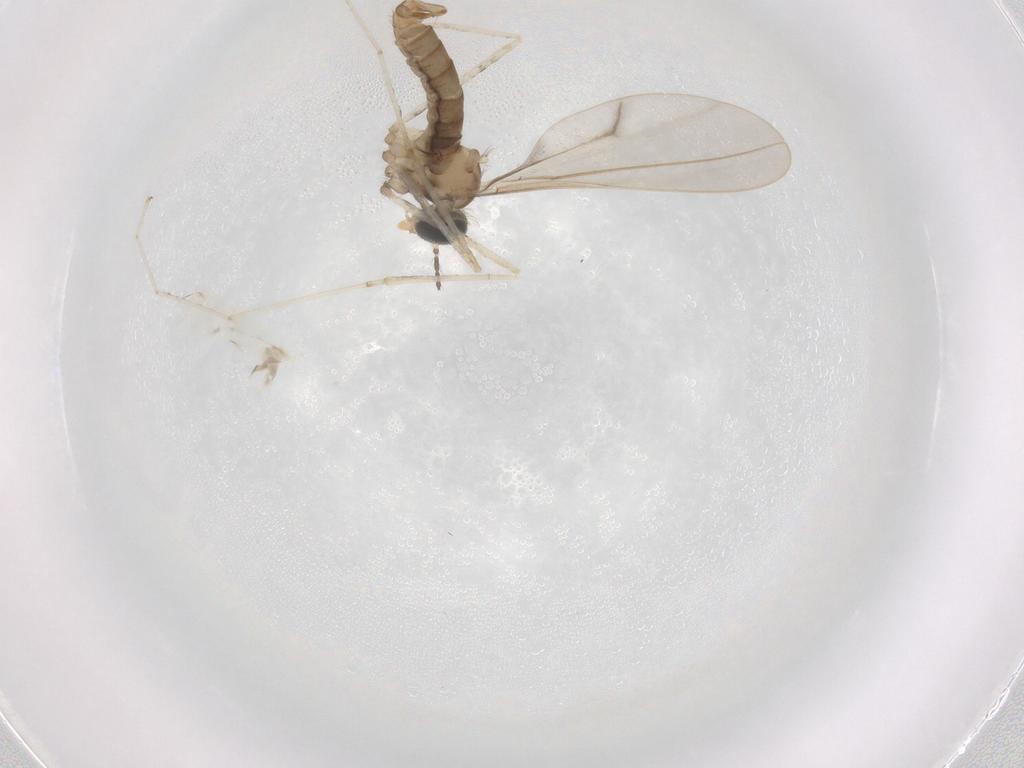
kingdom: Animalia
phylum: Arthropoda
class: Insecta
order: Diptera
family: Cecidomyiidae
